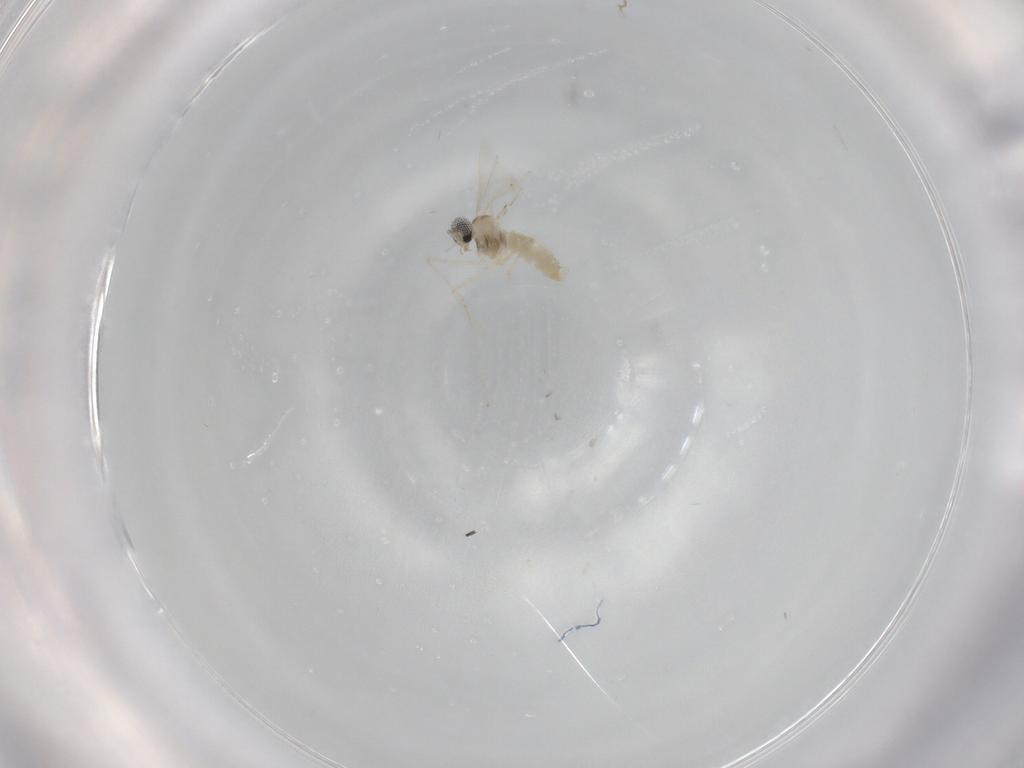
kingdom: Animalia
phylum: Arthropoda
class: Insecta
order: Diptera
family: Cecidomyiidae
